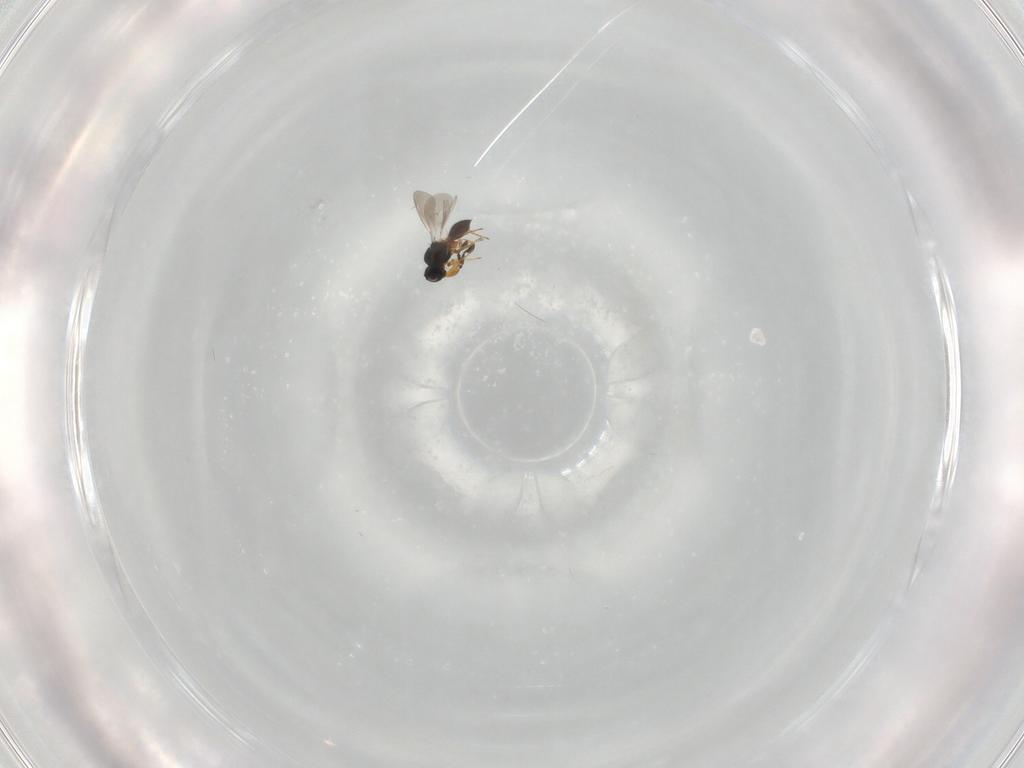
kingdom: Animalia
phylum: Arthropoda
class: Insecta
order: Hymenoptera
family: Platygastridae
